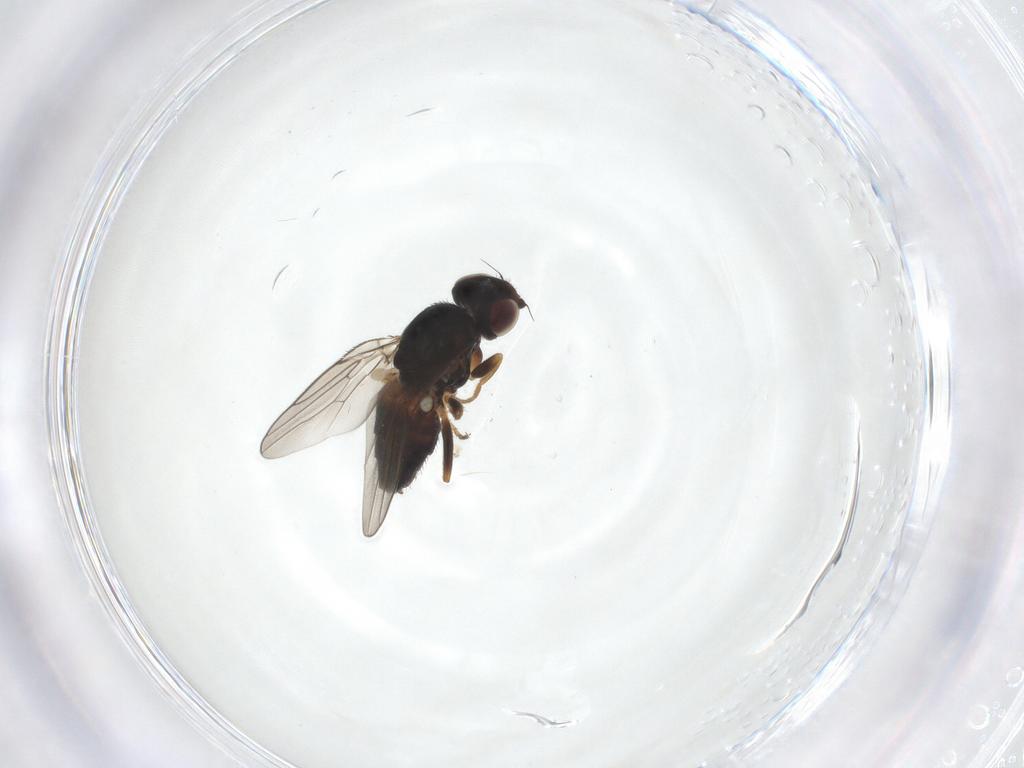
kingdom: Animalia
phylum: Arthropoda
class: Insecta
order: Diptera
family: Chloropidae
